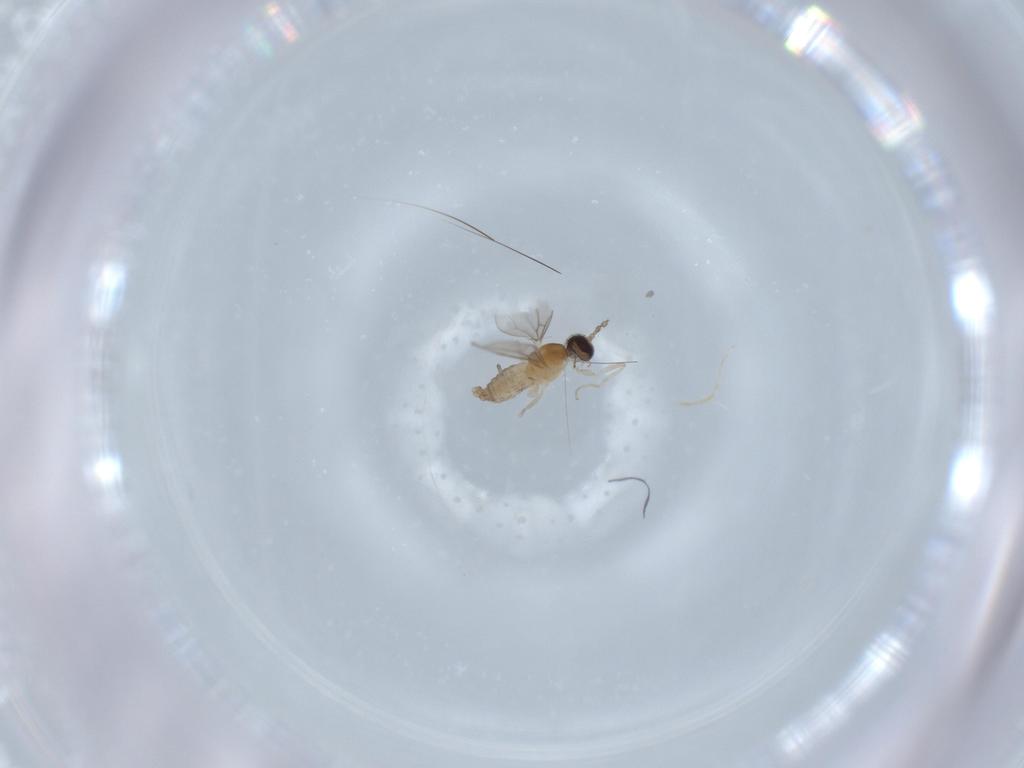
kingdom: Animalia
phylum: Arthropoda
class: Insecta
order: Diptera
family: Cecidomyiidae
